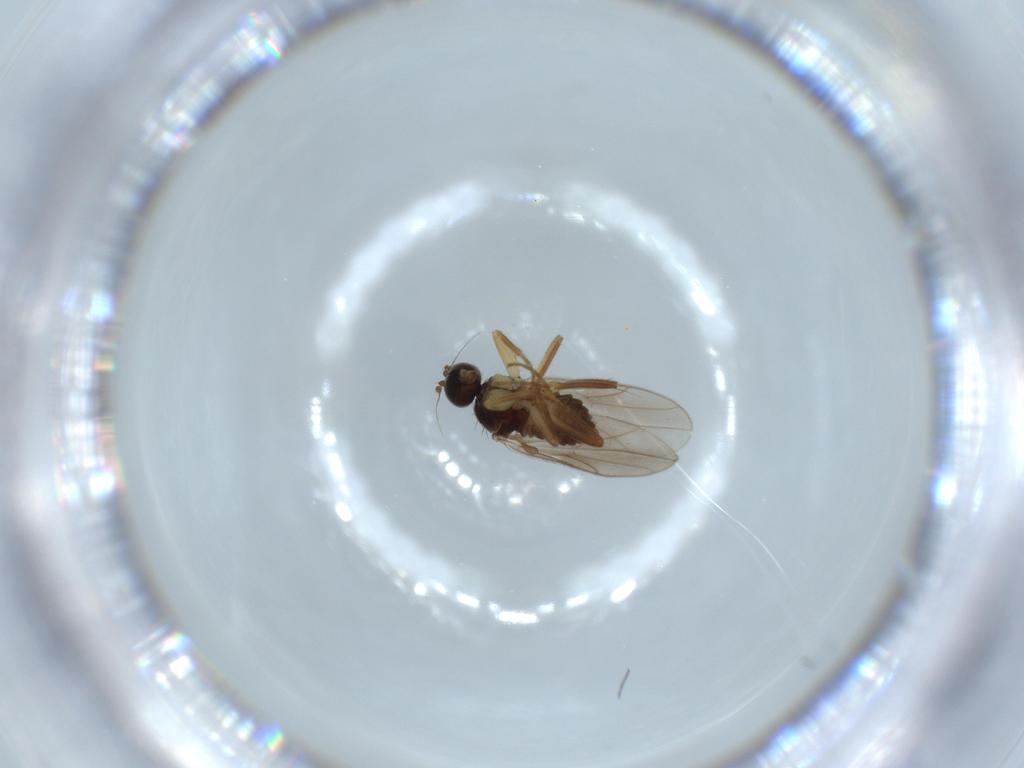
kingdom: Animalia
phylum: Arthropoda
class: Insecta
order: Diptera
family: Hybotidae
